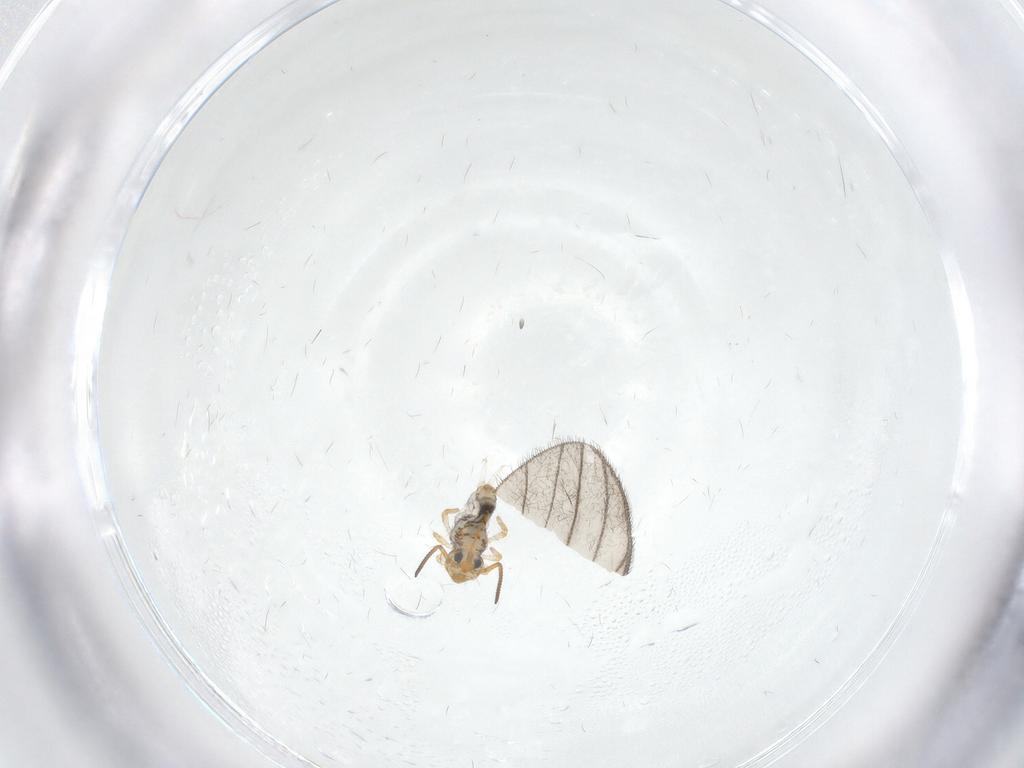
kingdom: Animalia
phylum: Arthropoda
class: Collembola
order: Symphypleona
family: Katiannidae
